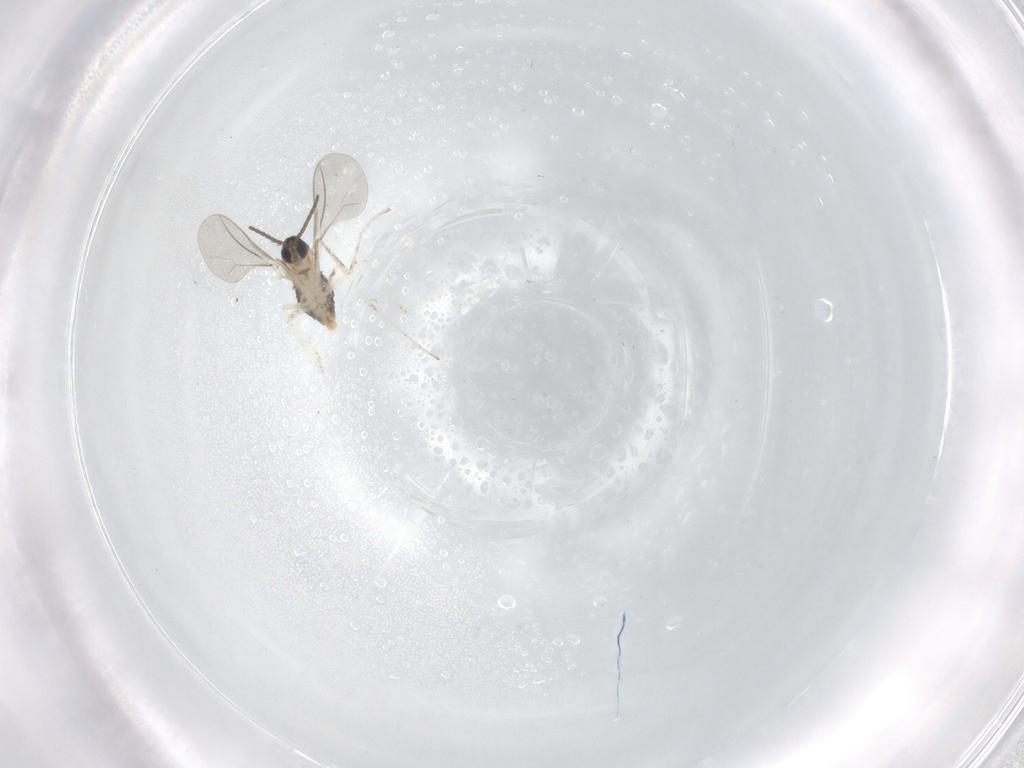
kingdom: Animalia
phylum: Arthropoda
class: Insecta
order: Diptera
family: Cecidomyiidae
